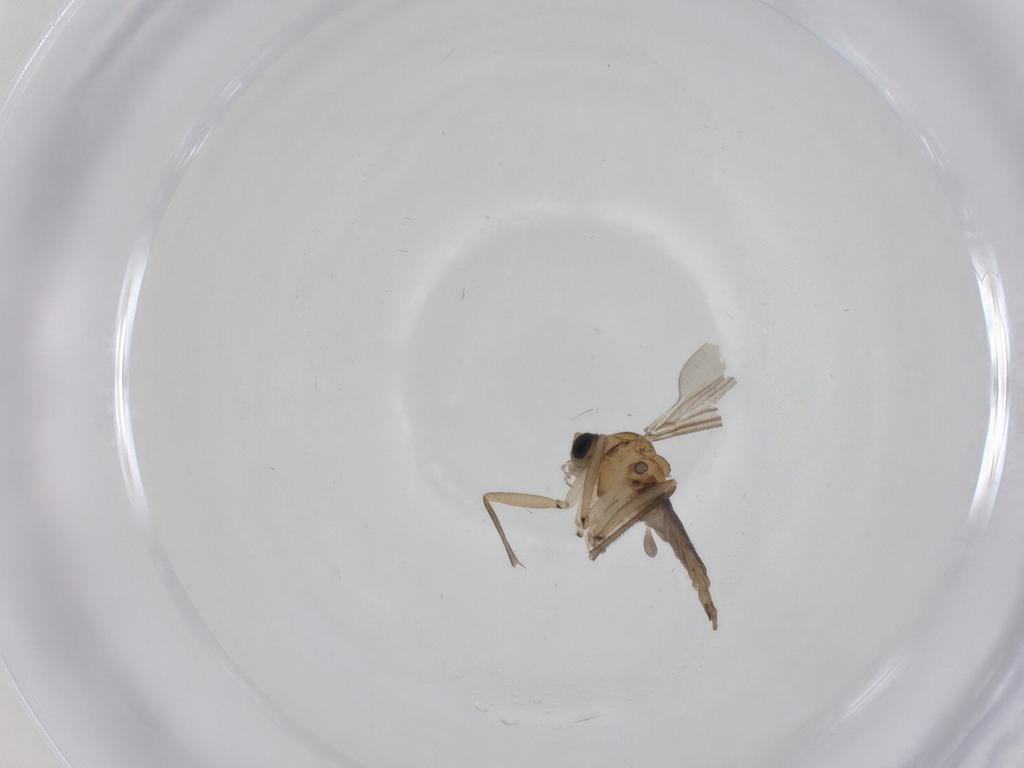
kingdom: Animalia
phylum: Arthropoda
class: Insecta
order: Diptera
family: Sciaridae
